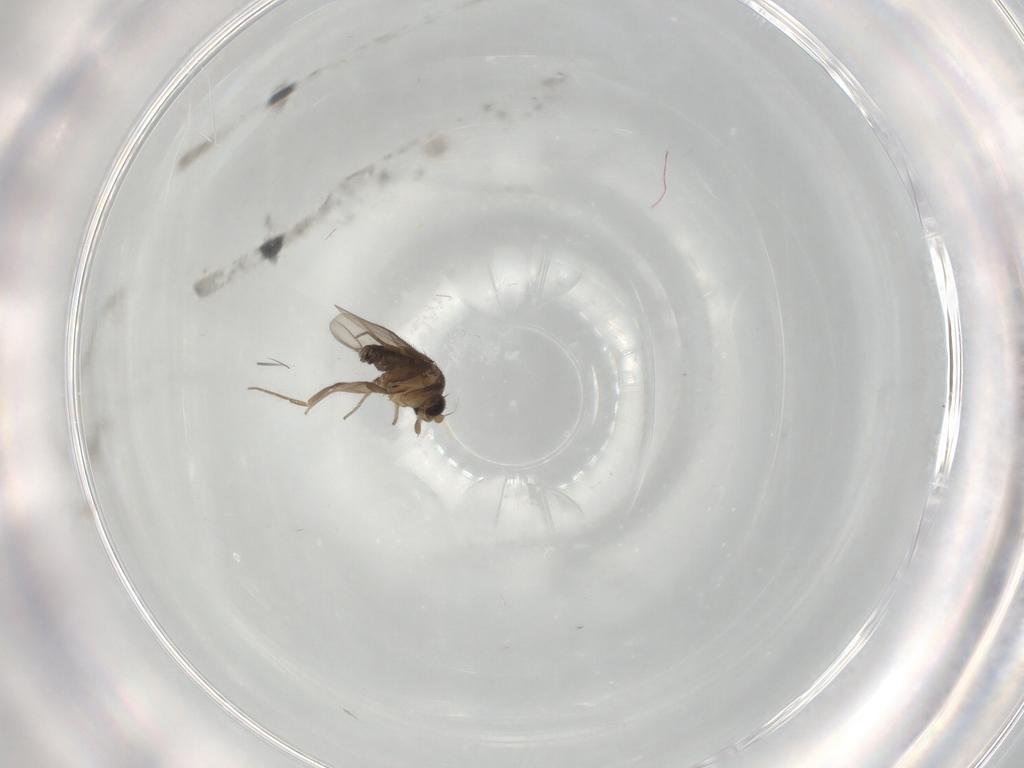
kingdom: Animalia
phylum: Arthropoda
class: Insecta
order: Diptera
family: Phoridae
